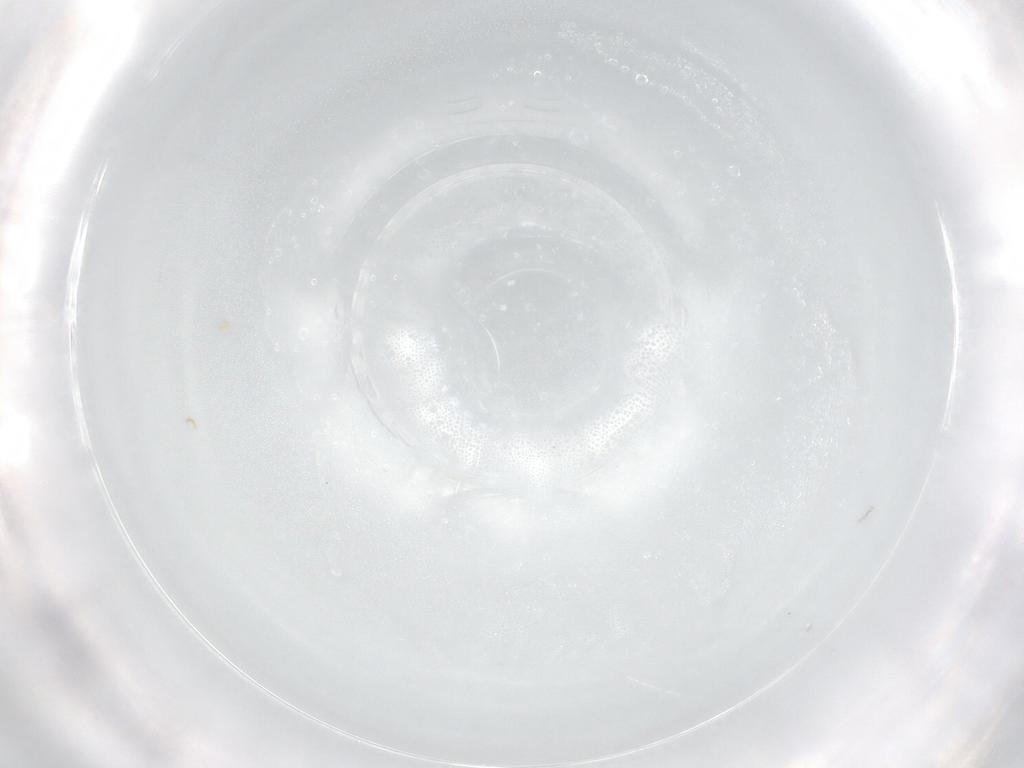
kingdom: Animalia
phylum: Arthropoda
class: Insecta
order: Diptera
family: Phoridae
